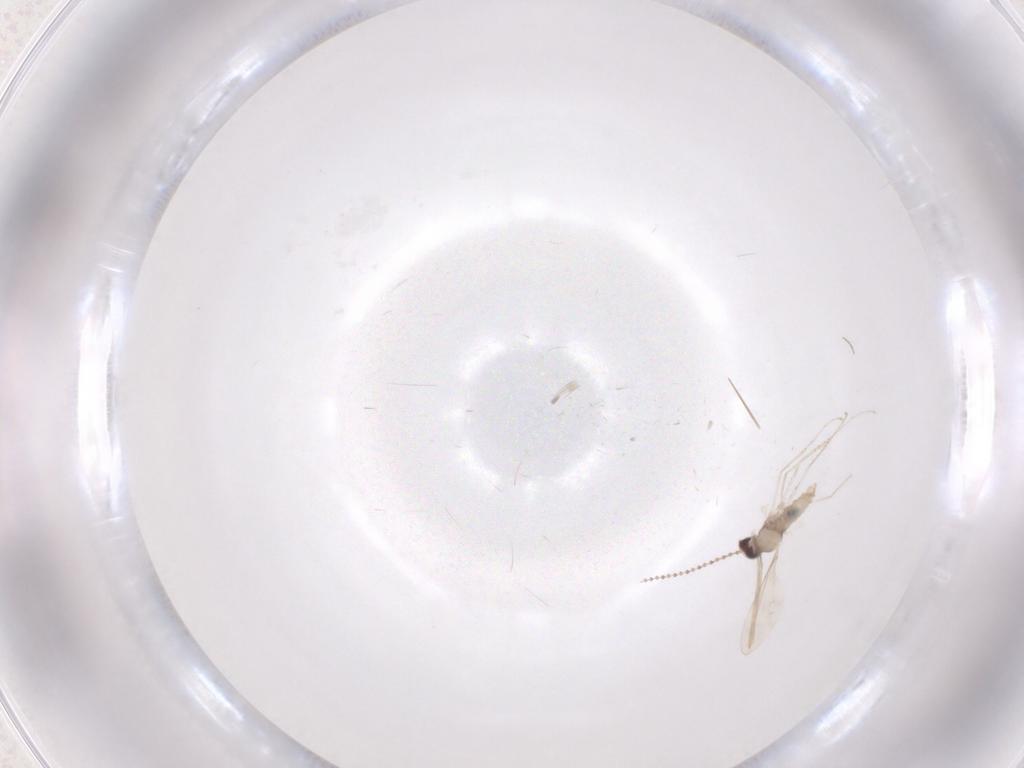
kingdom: Animalia
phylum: Arthropoda
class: Insecta
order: Diptera
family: Chironomidae
